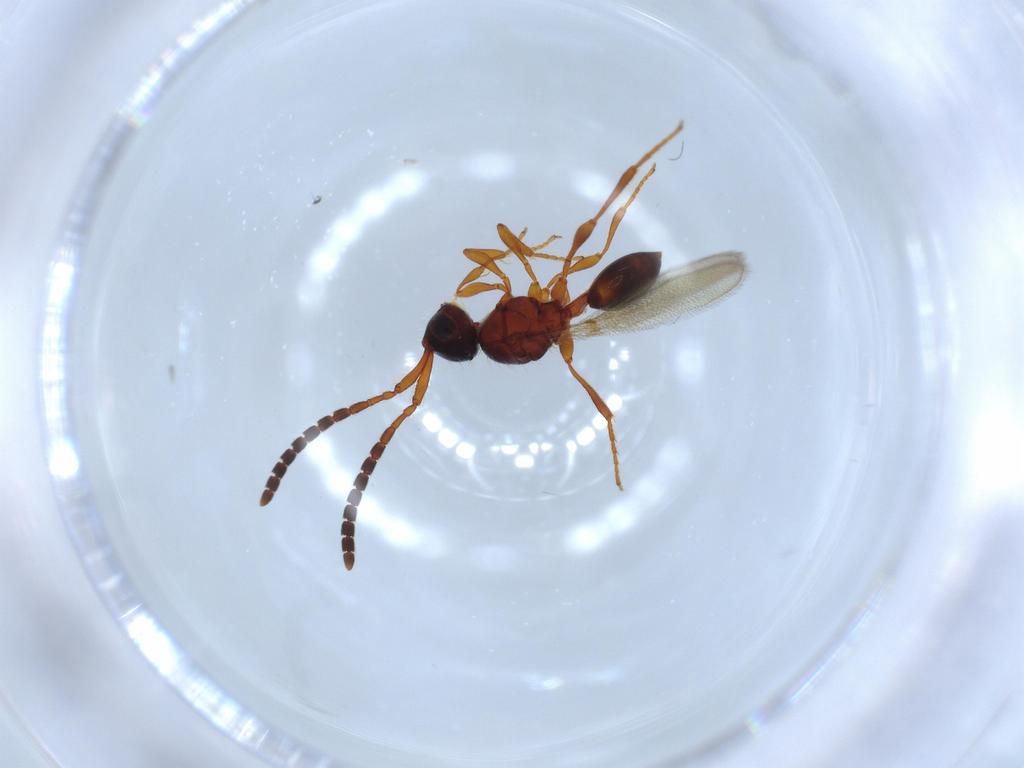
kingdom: Animalia
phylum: Arthropoda
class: Insecta
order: Hymenoptera
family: Diapriidae
